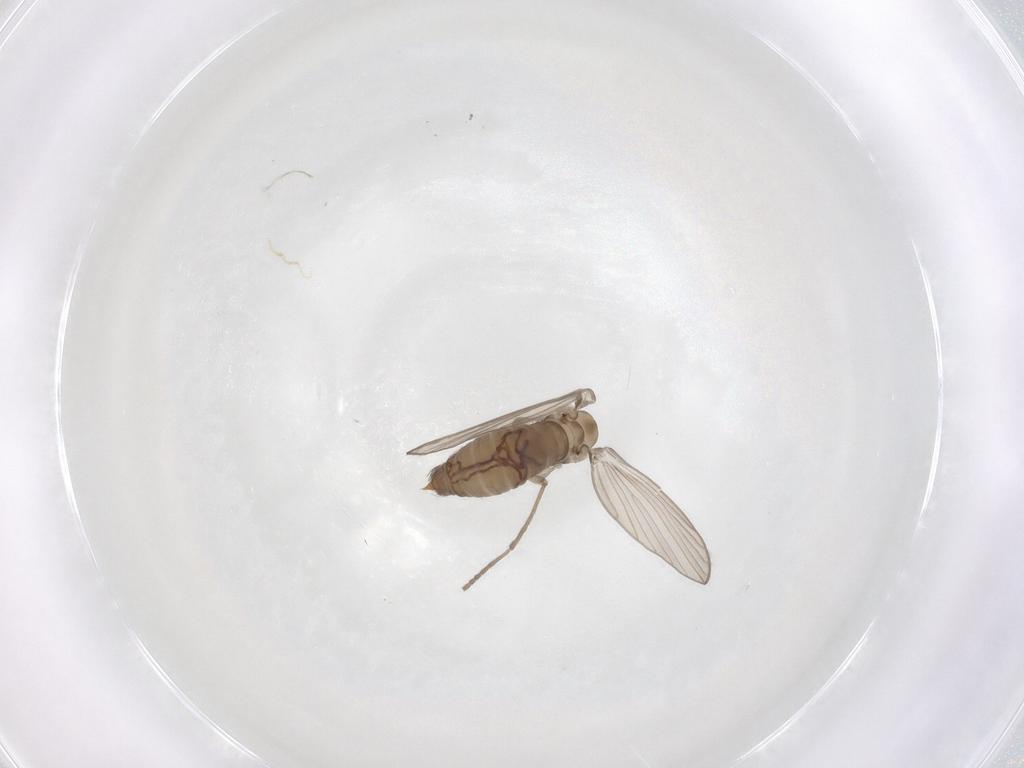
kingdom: Animalia
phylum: Arthropoda
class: Insecta
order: Diptera
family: Psychodidae
